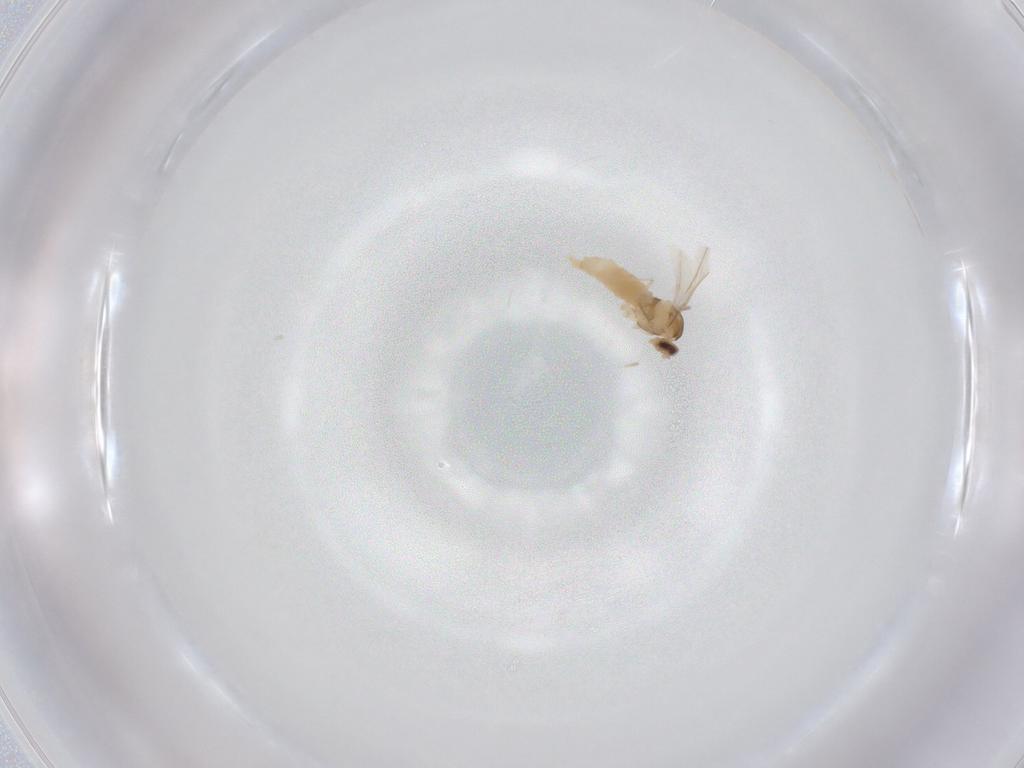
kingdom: Animalia
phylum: Arthropoda
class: Insecta
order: Diptera
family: Cecidomyiidae
